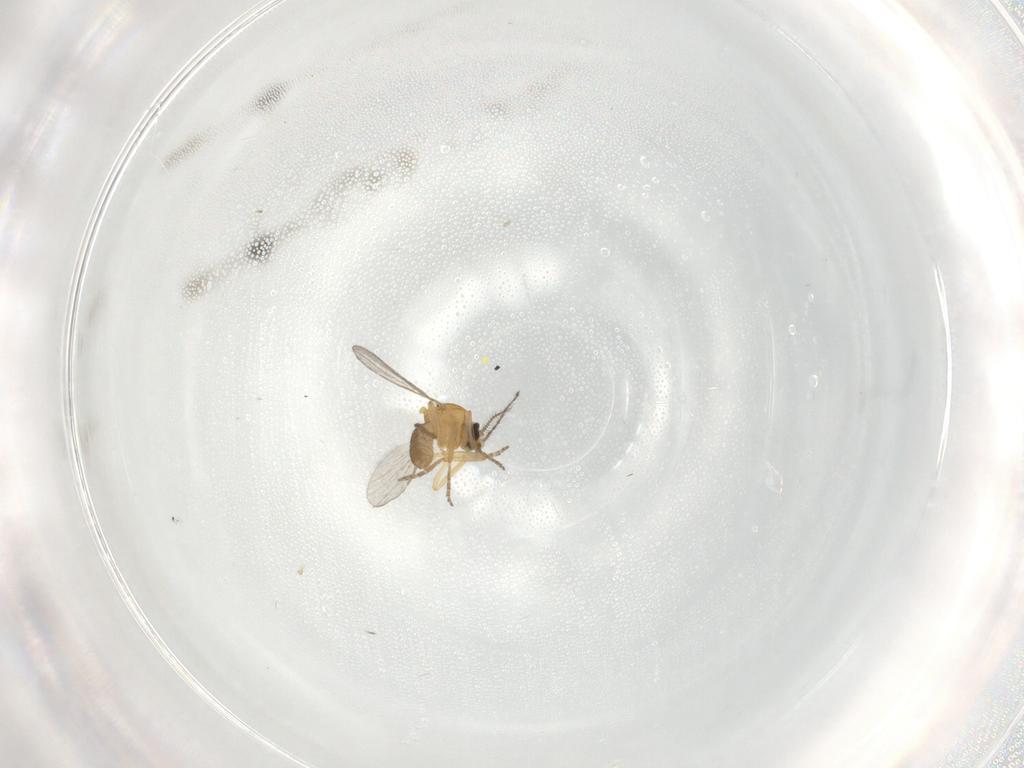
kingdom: Animalia
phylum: Arthropoda
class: Insecta
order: Diptera
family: Ceratopogonidae
